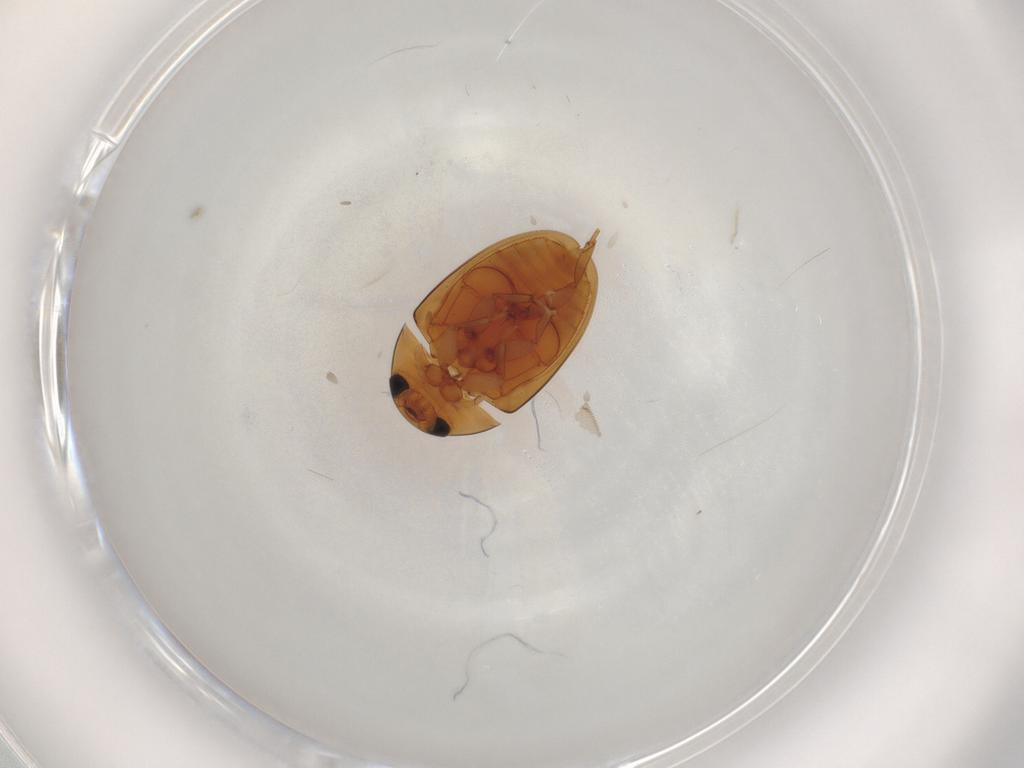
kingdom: Animalia
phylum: Arthropoda
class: Insecta
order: Coleoptera
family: Phalacridae
